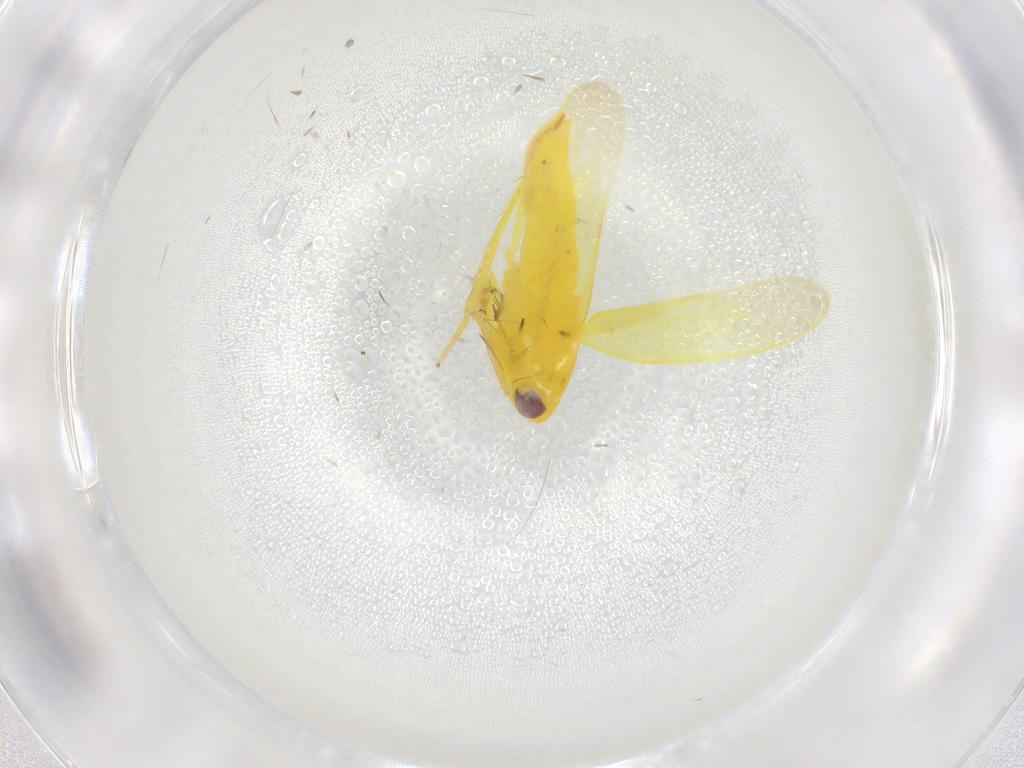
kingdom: Animalia
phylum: Arthropoda
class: Insecta
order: Hemiptera
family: Cicadellidae
